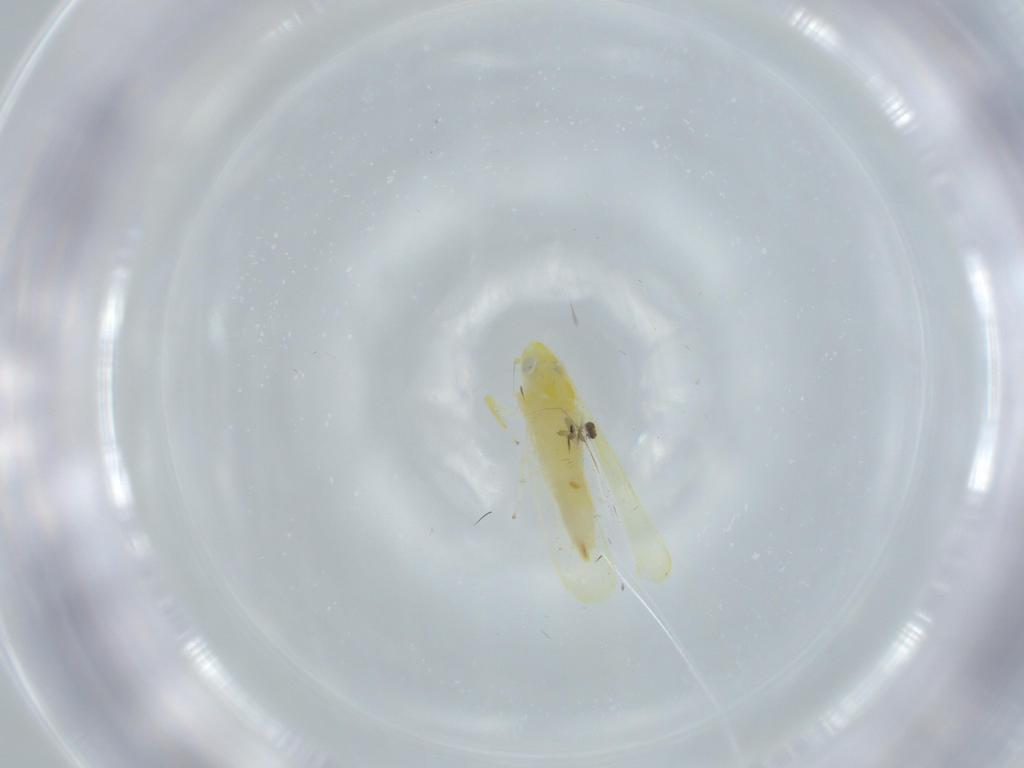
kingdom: Animalia
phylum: Arthropoda
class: Insecta
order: Hemiptera
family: Cicadellidae
